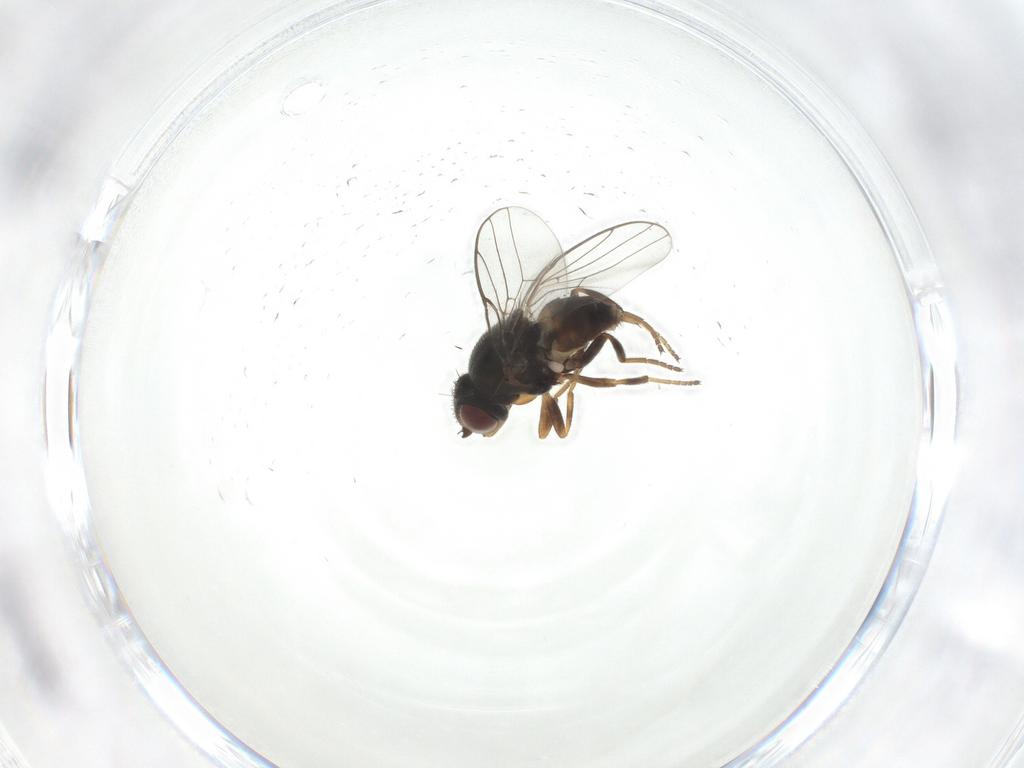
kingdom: Animalia
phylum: Arthropoda
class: Insecta
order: Diptera
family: Chloropidae
